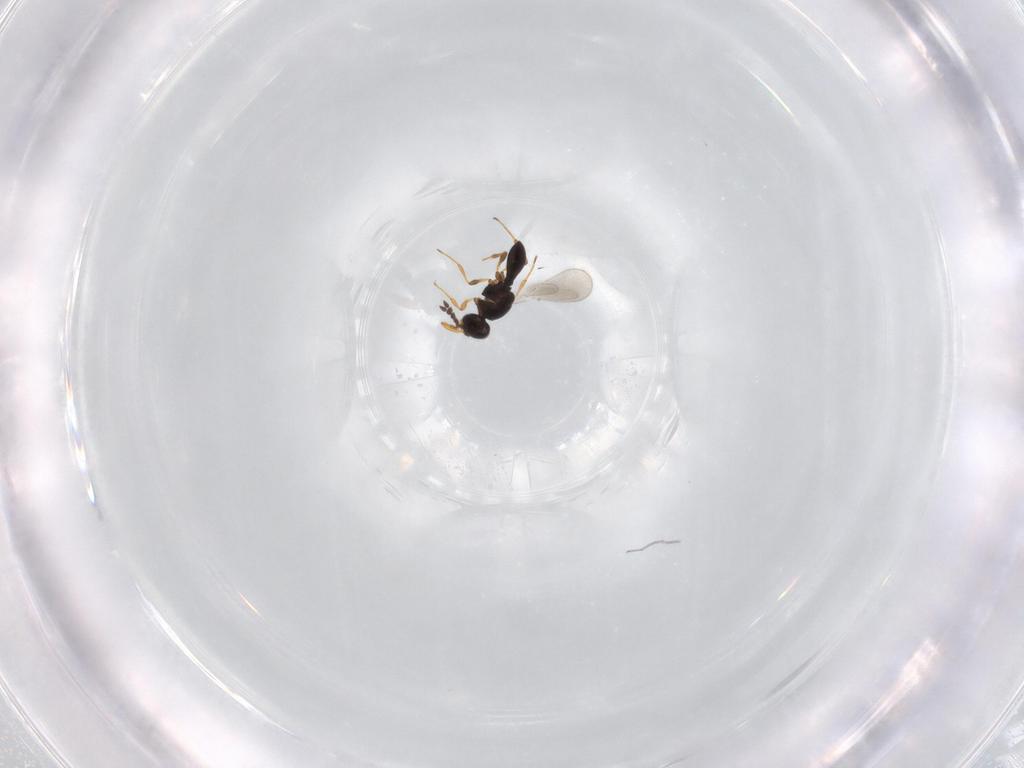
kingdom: Animalia
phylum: Arthropoda
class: Insecta
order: Hymenoptera
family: Platygastridae
